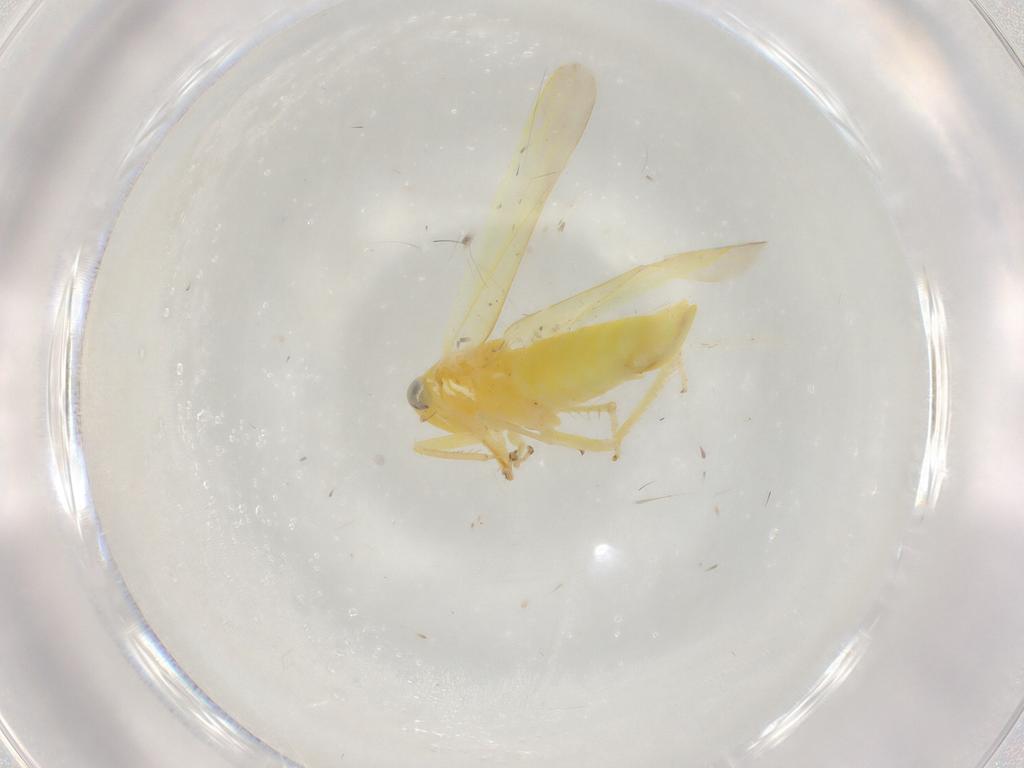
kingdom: Animalia
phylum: Arthropoda
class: Insecta
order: Hemiptera
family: Cicadellidae
